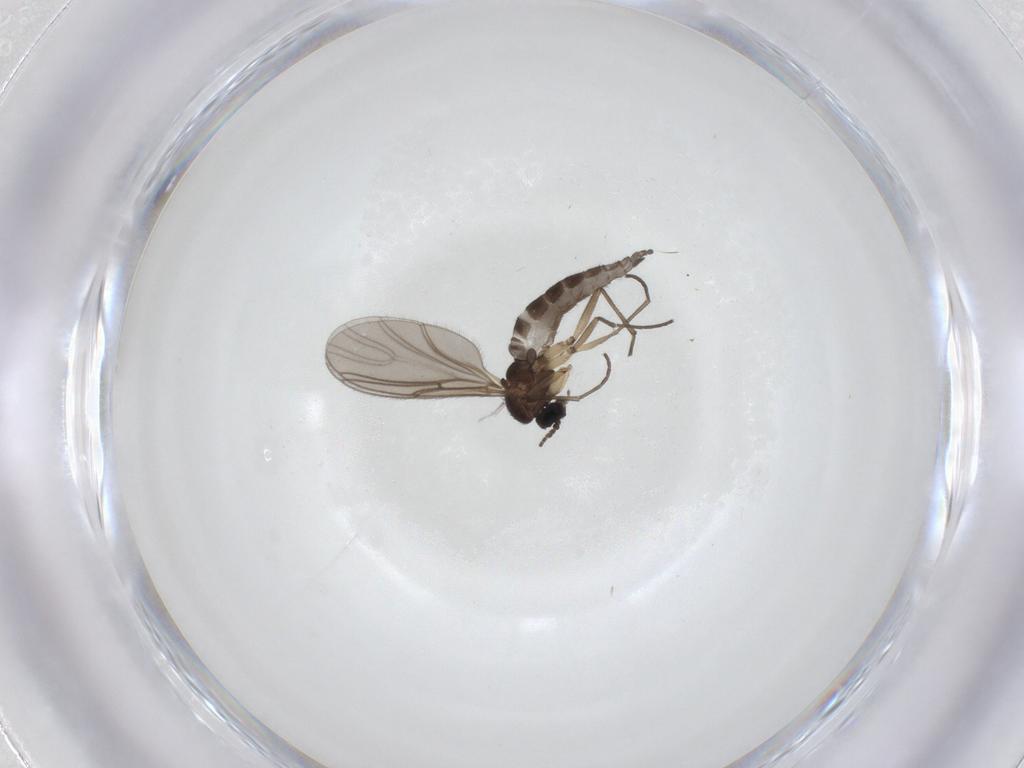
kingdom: Animalia
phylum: Arthropoda
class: Insecta
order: Diptera
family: Sciaridae
